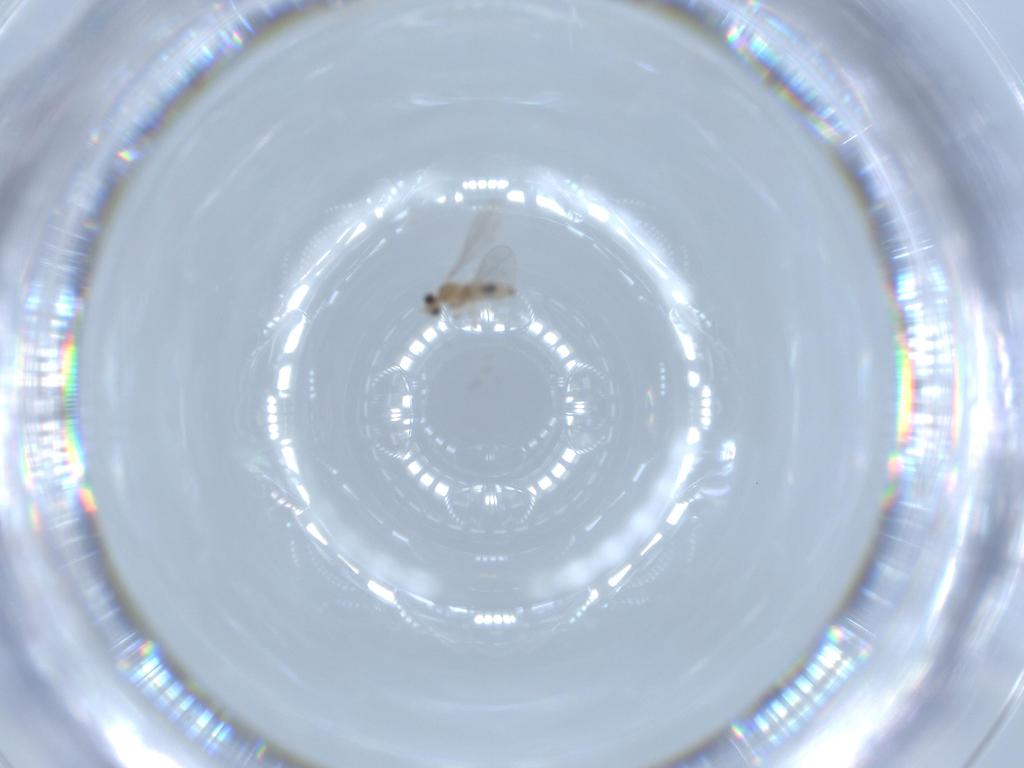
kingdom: Animalia
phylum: Arthropoda
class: Insecta
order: Diptera
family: Cecidomyiidae
